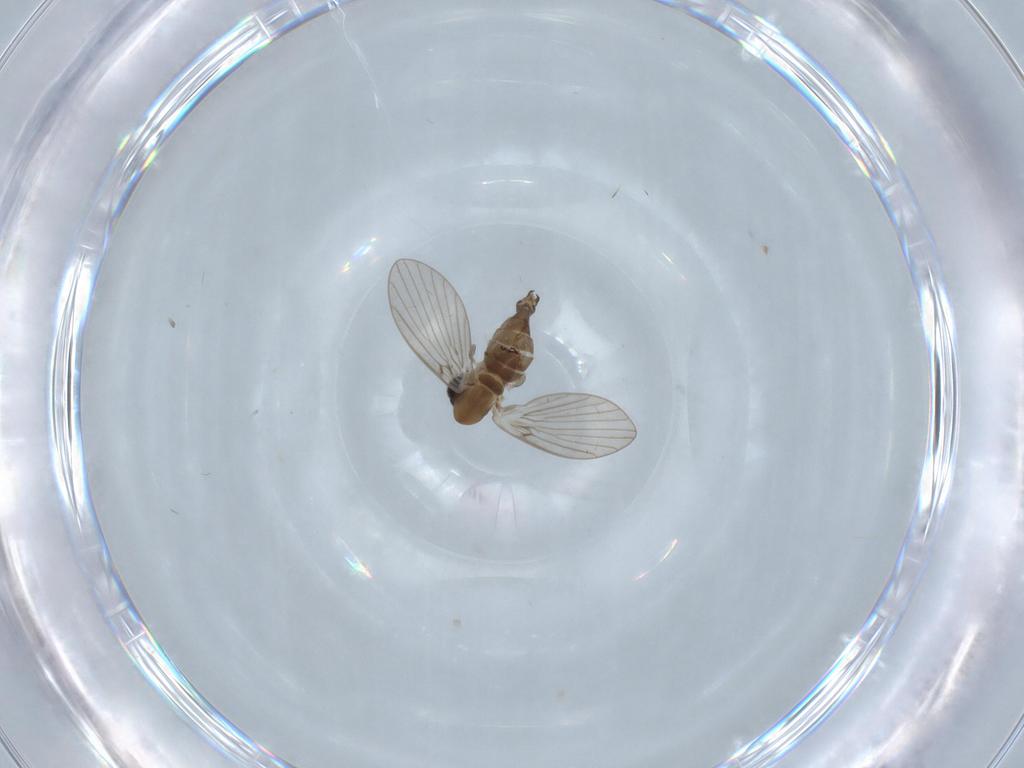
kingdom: Animalia
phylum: Arthropoda
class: Insecta
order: Diptera
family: Psychodidae
